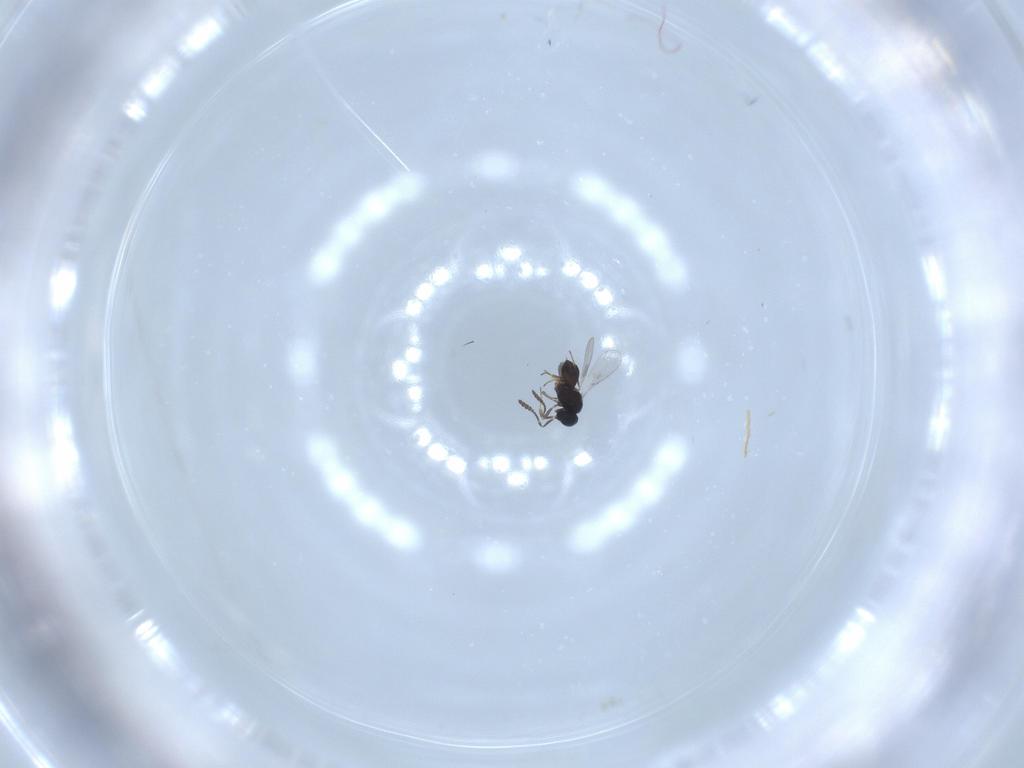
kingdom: Animalia
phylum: Arthropoda
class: Insecta
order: Hymenoptera
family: Scelionidae
